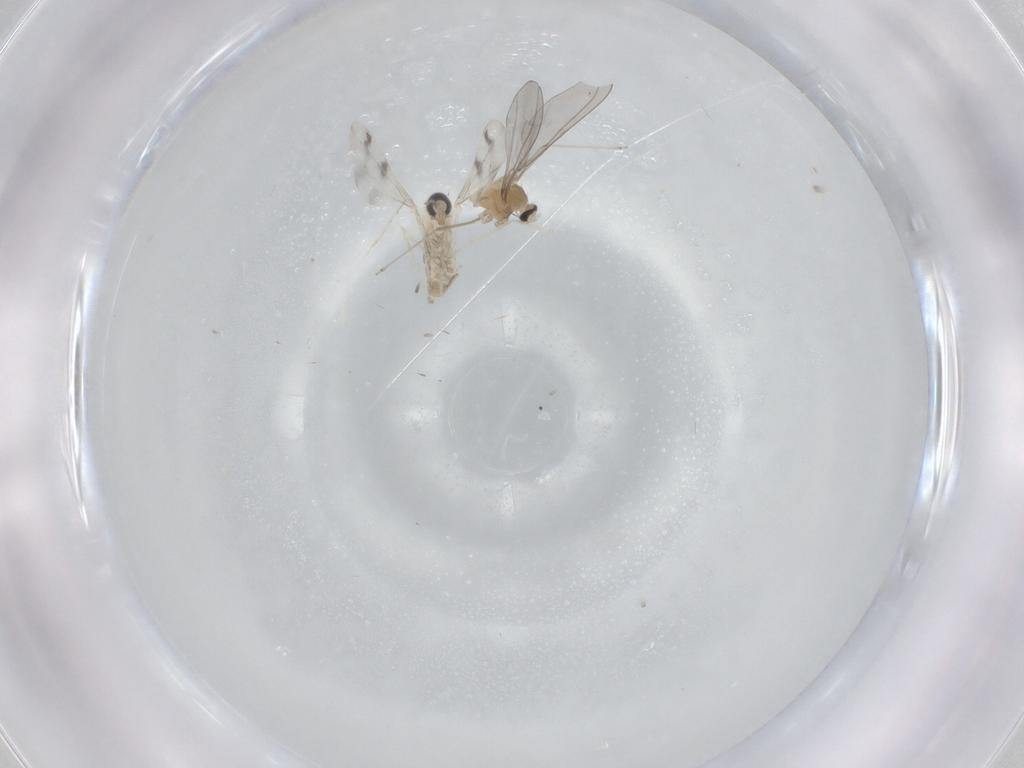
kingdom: Animalia
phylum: Arthropoda
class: Insecta
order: Diptera
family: Cecidomyiidae
